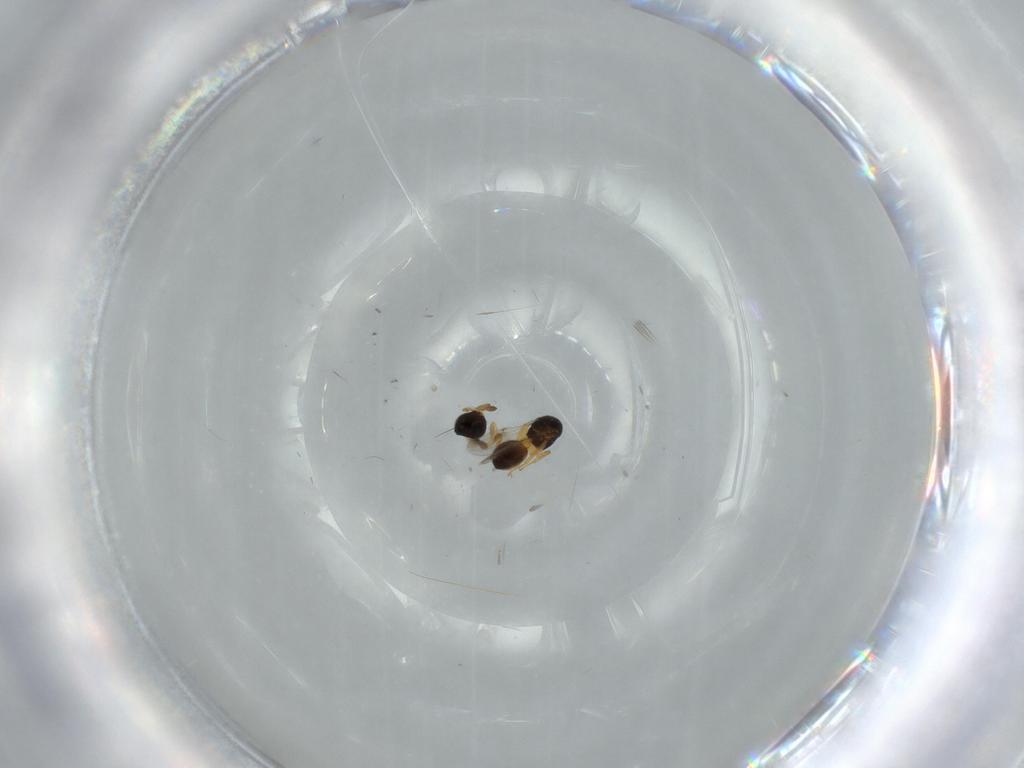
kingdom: Animalia
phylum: Arthropoda
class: Insecta
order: Hymenoptera
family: Scelionidae
